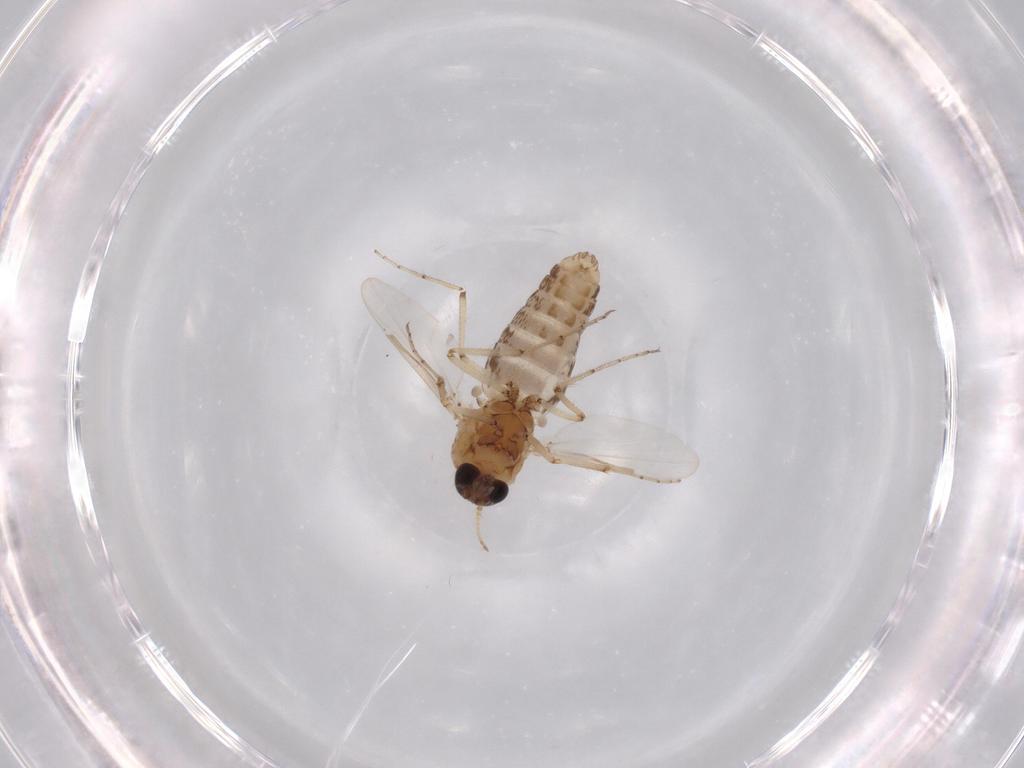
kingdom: Animalia
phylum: Arthropoda
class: Insecta
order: Diptera
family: Ceratopogonidae
